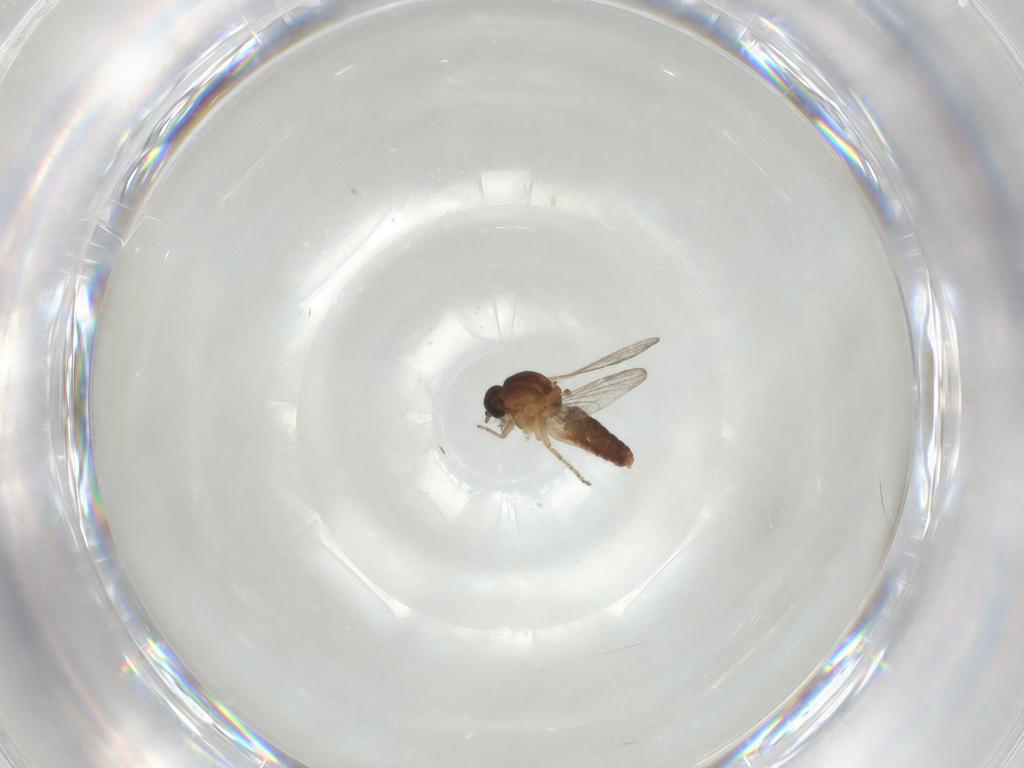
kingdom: Animalia
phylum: Arthropoda
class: Insecta
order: Diptera
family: Ceratopogonidae
